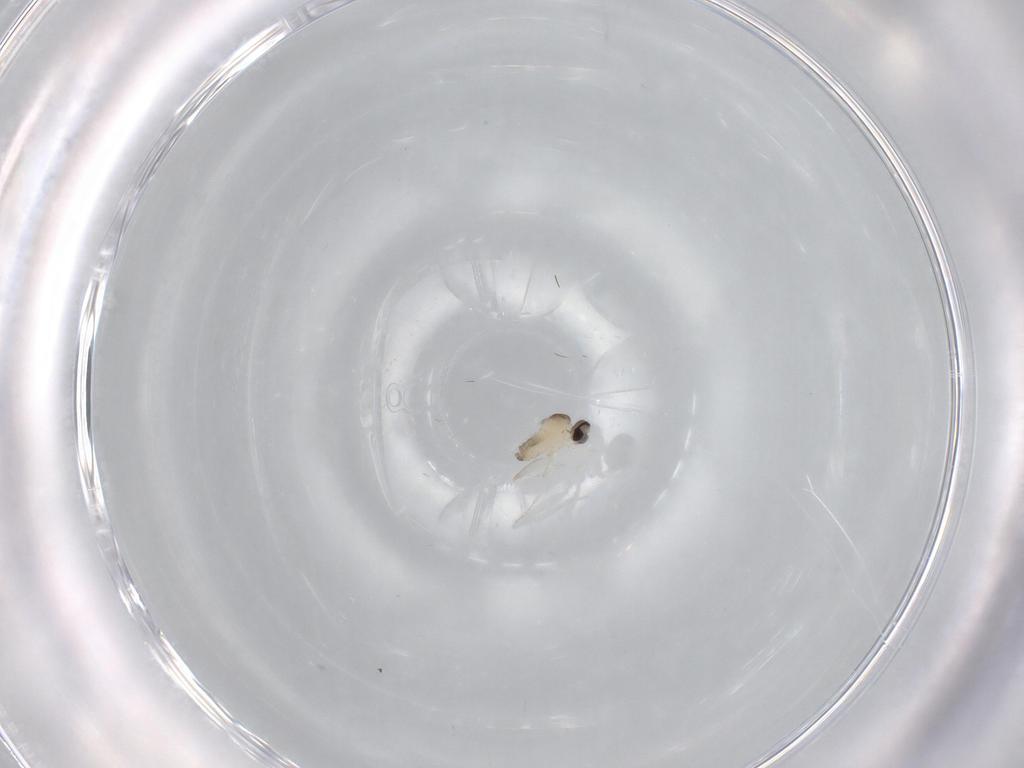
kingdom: Animalia
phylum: Arthropoda
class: Insecta
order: Diptera
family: Cecidomyiidae
